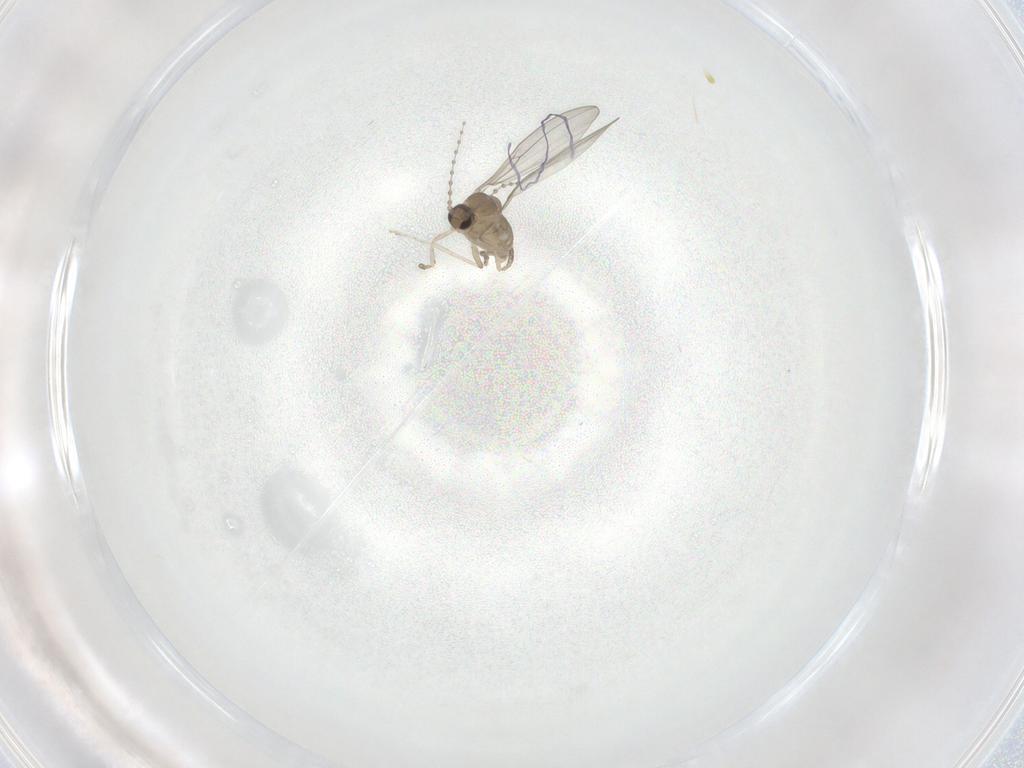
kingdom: Animalia
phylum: Arthropoda
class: Insecta
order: Diptera
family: Cecidomyiidae
